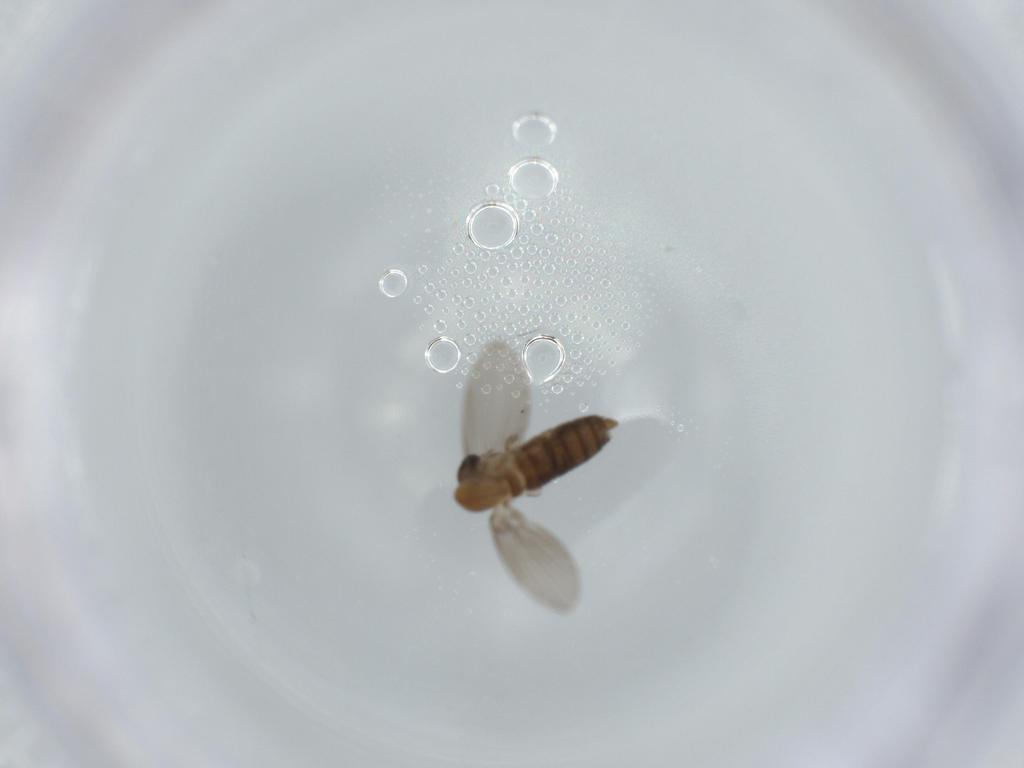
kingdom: Animalia
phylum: Arthropoda
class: Insecta
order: Diptera
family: Psychodidae
